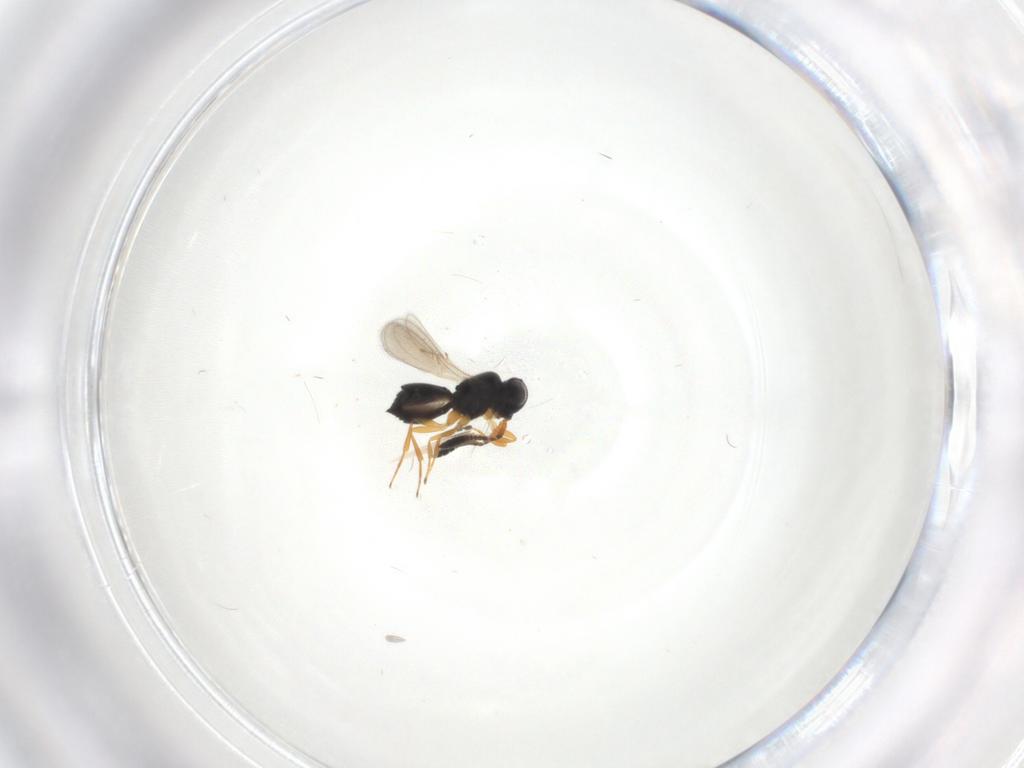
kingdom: Animalia
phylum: Arthropoda
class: Insecta
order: Hymenoptera
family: Scelionidae
